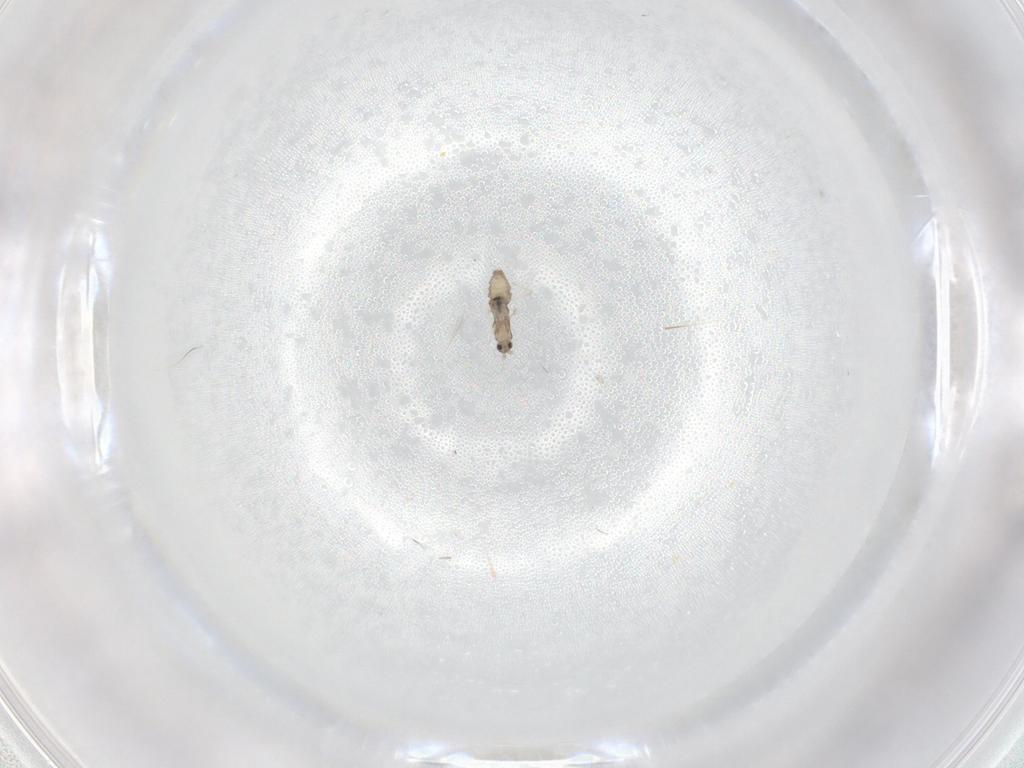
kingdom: Animalia
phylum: Arthropoda
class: Insecta
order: Diptera
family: Cecidomyiidae
